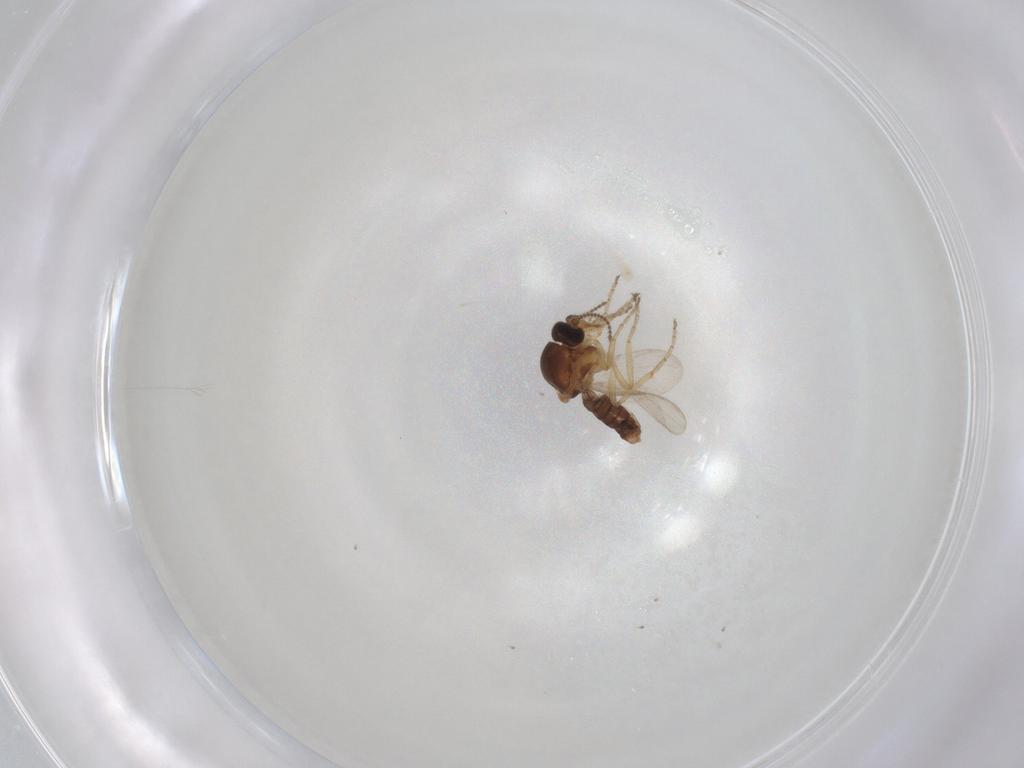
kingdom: Animalia
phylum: Arthropoda
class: Insecta
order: Diptera
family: Ceratopogonidae
